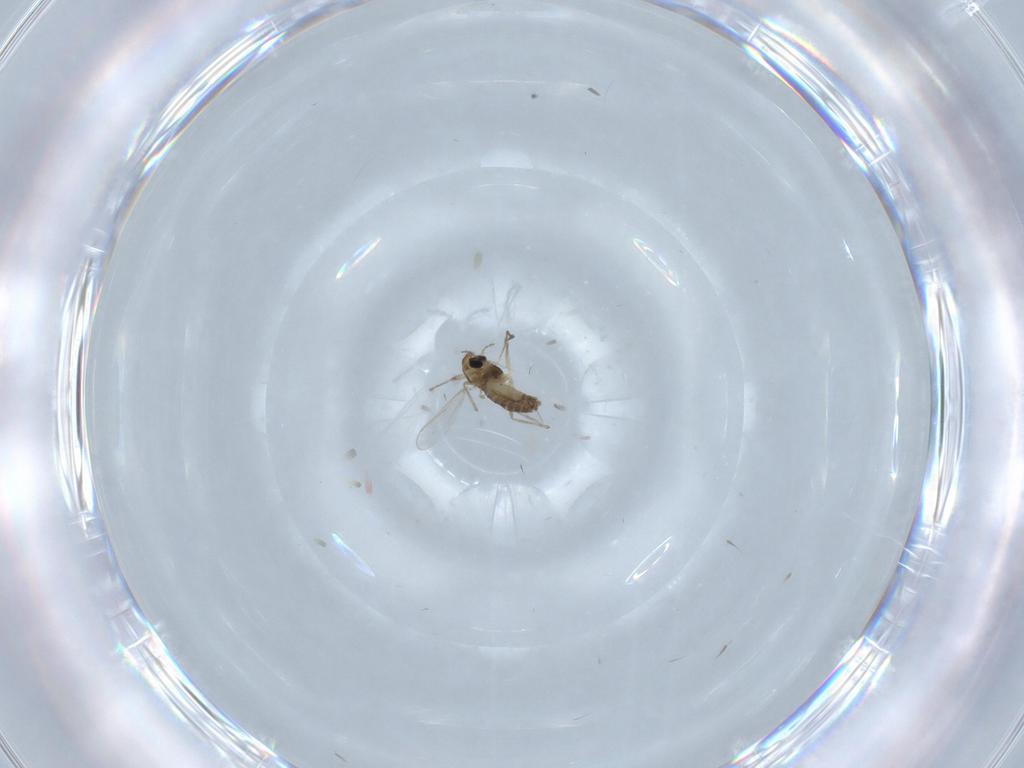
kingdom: Animalia
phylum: Arthropoda
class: Insecta
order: Diptera
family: Chironomidae
